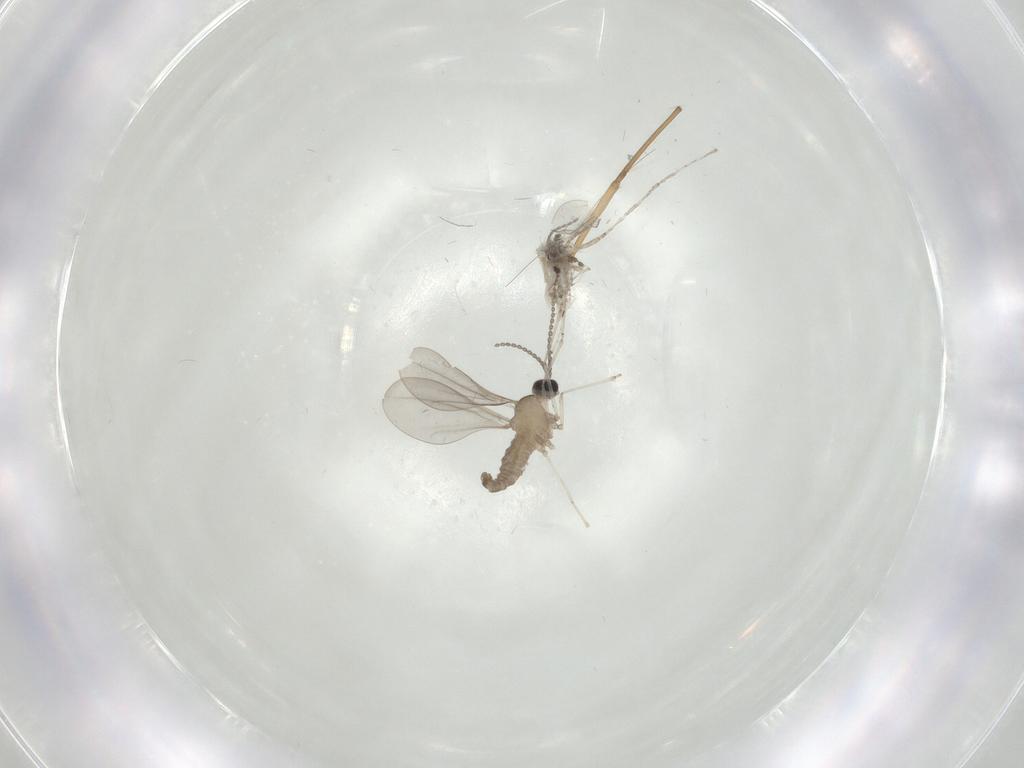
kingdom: Animalia
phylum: Arthropoda
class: Insecta
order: Diptera
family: Cecidomyiidae
